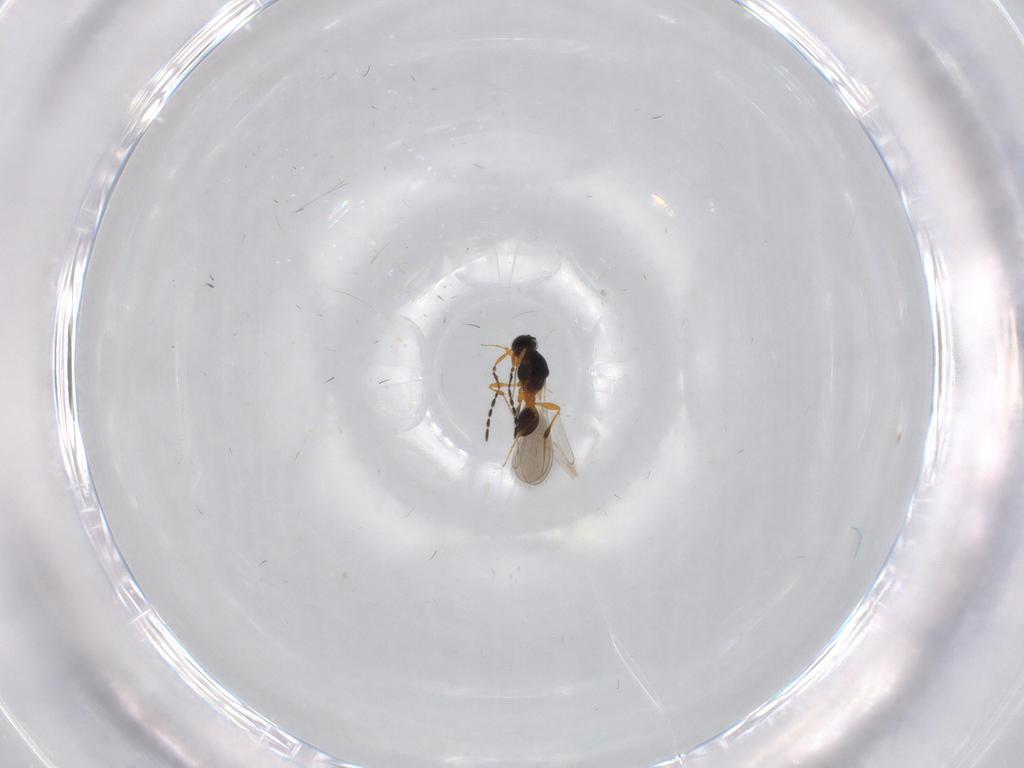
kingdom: Animalia
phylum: Arthropoda
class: Insecta
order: Hymenoptera
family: Platygastridae
